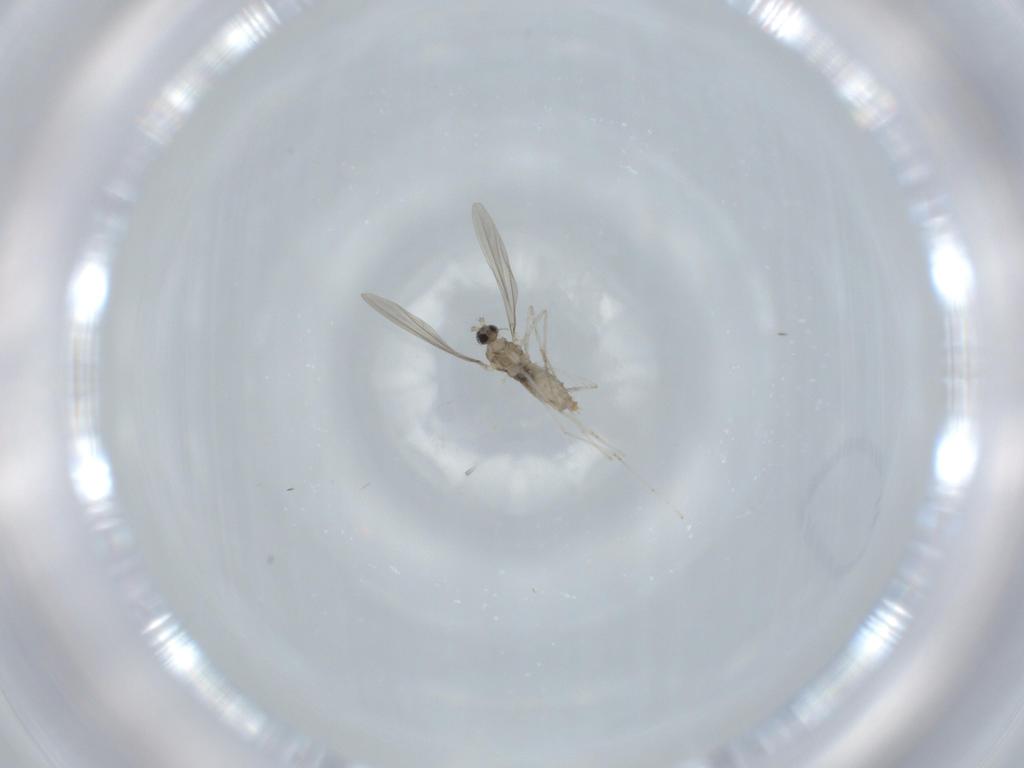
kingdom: Animalia
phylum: Arthropoda
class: Insecta
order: Diptera
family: Cecidomyiidae
